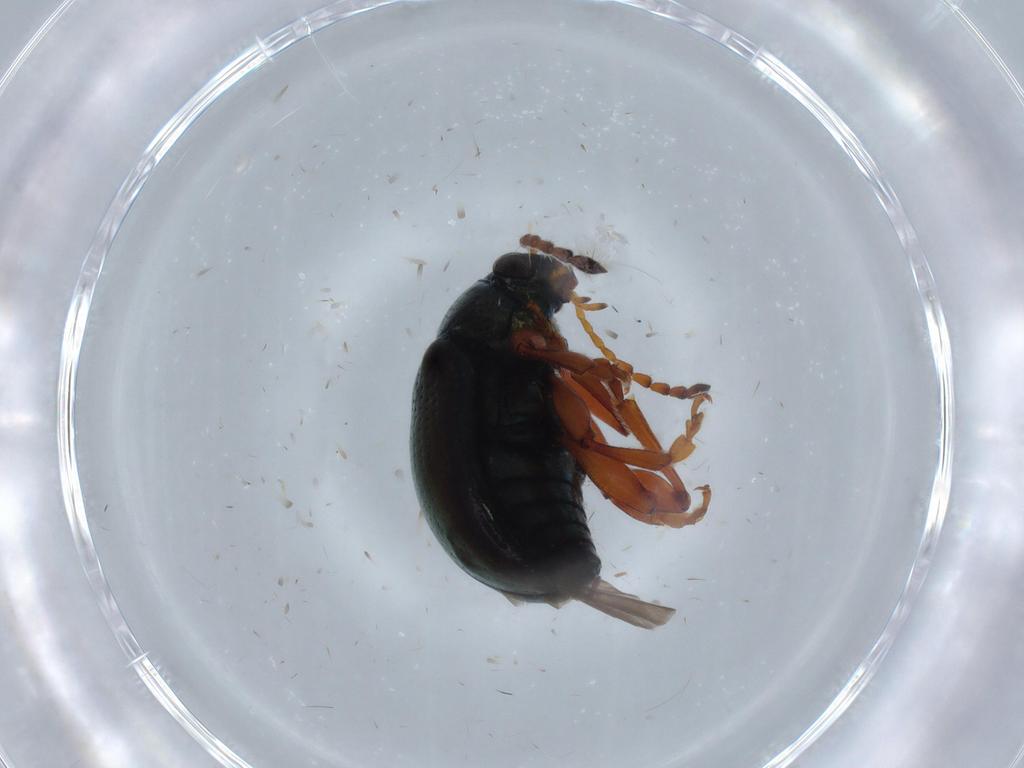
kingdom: Animalia
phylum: Arthropoda
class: Insecta
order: Coleoptera
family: Chrysomelidae
